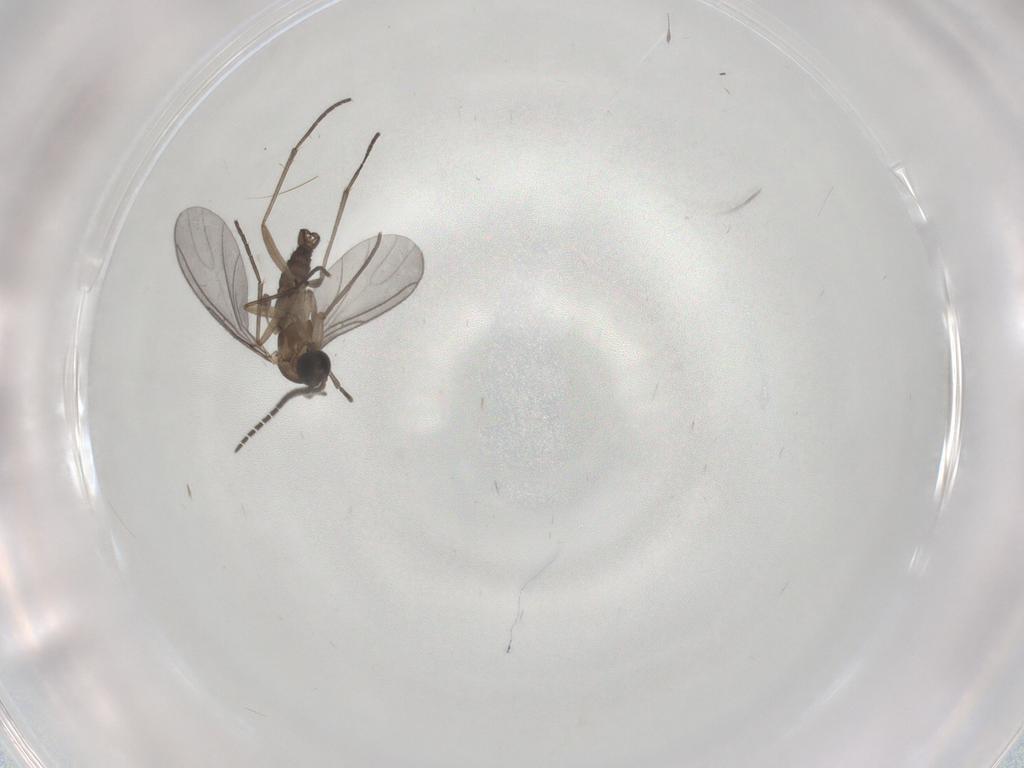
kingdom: Animalia
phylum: Arthropoda
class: Insecta
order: Diptera
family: Sciaridae
